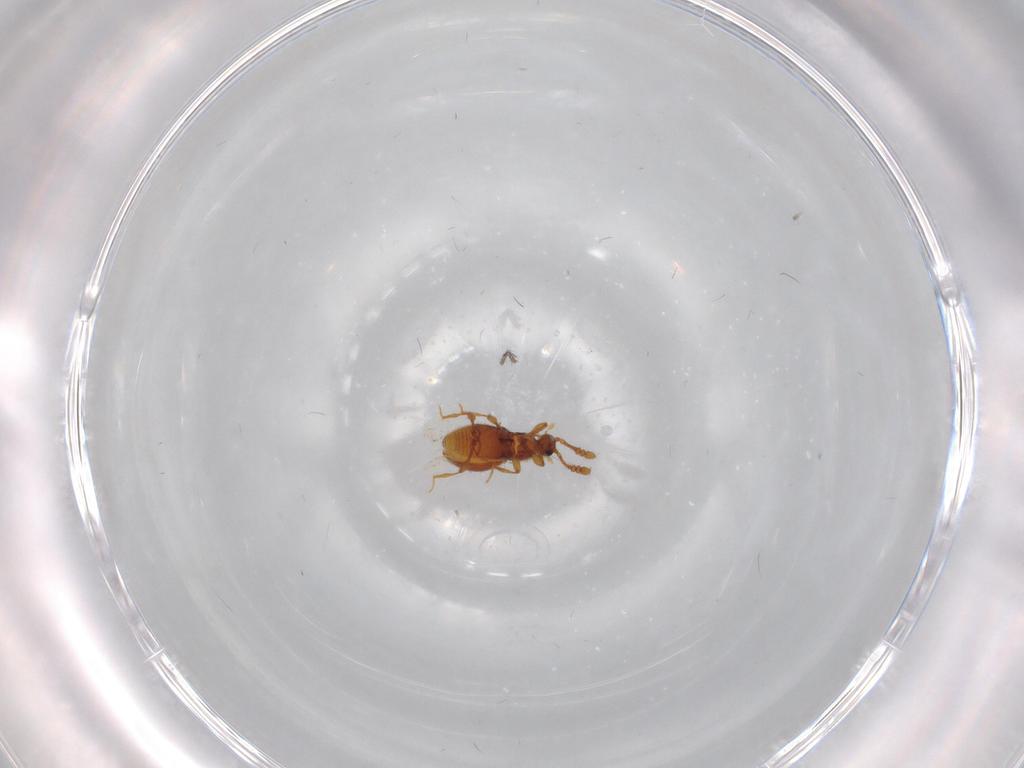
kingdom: Animalia
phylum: Arthropoda
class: Insecta
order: Coleoptera
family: Staphylinidae
